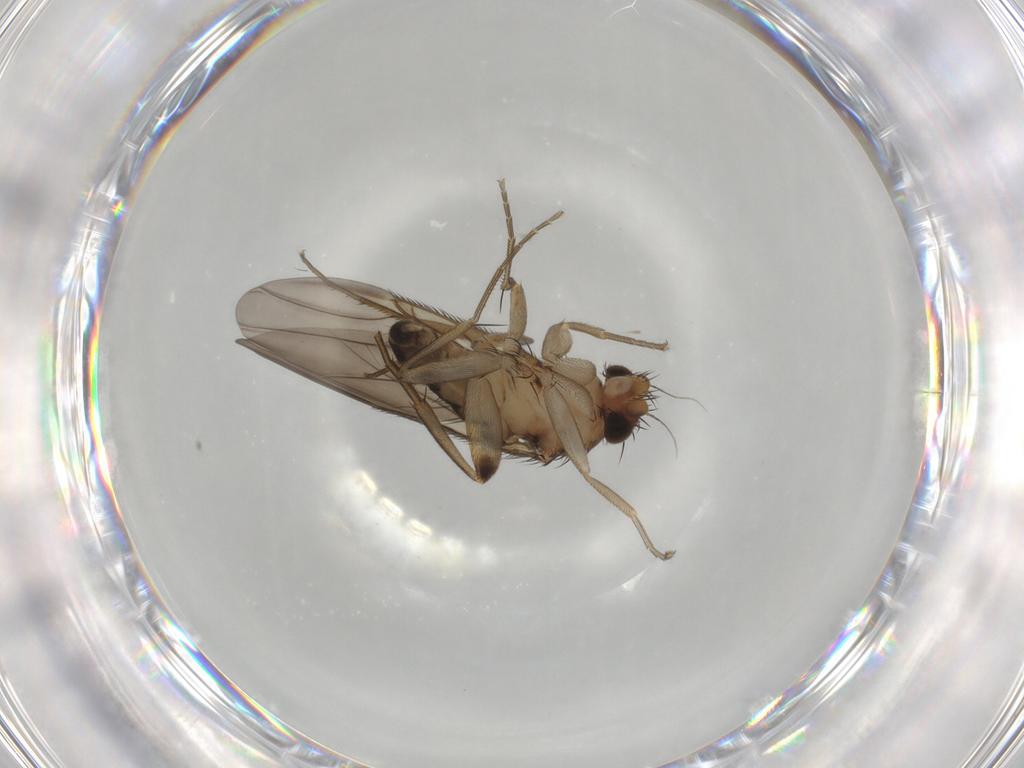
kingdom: Animalia
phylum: Arthropoda
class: Insecta
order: Diptera
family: Phoridae
